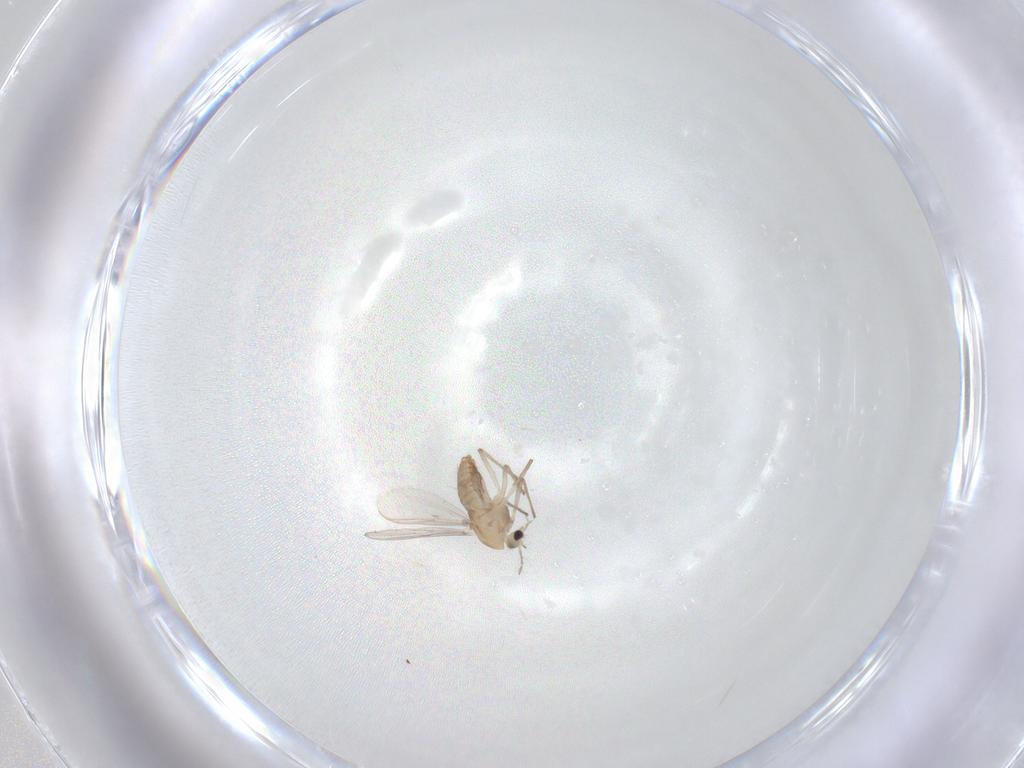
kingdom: Animalia
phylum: Arthropoda
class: Insecta
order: Diptera
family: Chironomidae
